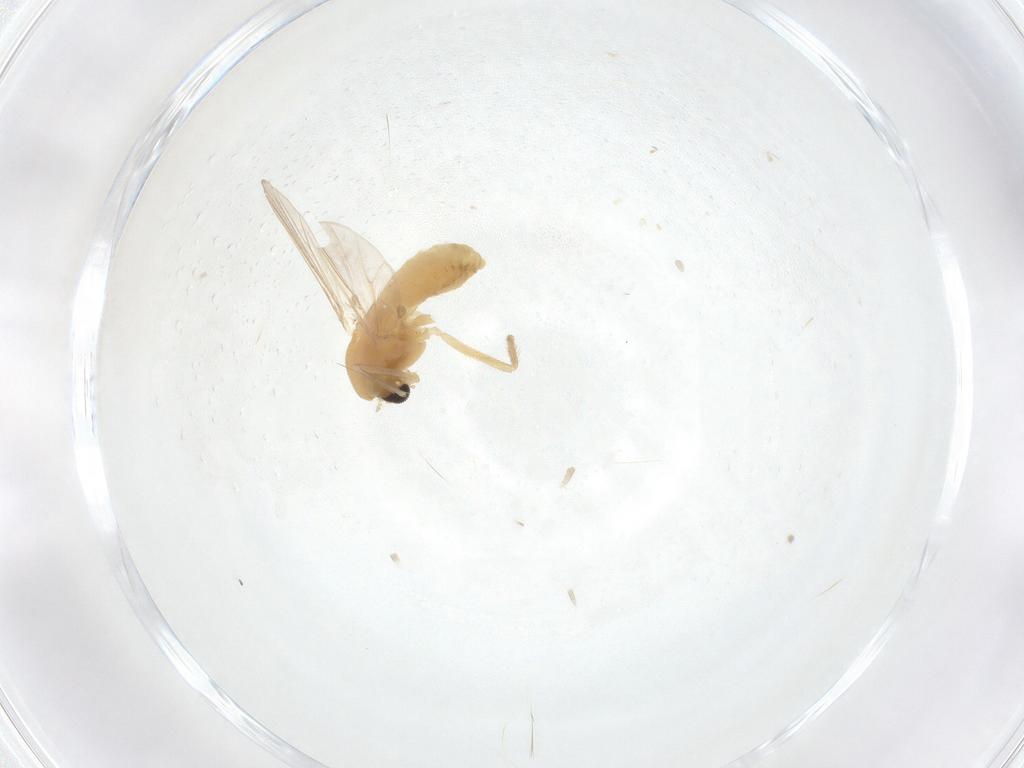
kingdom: Animalia
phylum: Arthropoda
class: Insecta
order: Diptera
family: Chironomidae
